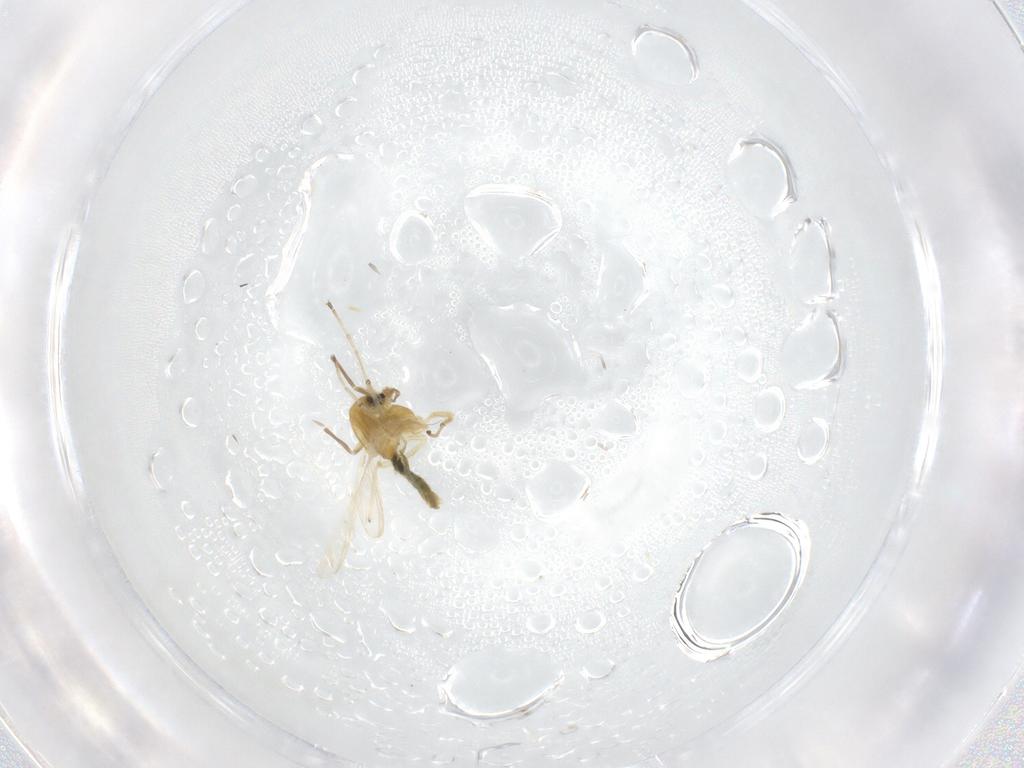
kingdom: Animalia
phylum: Arthropoda
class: Insecta
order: Diptera
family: Chironomidae
